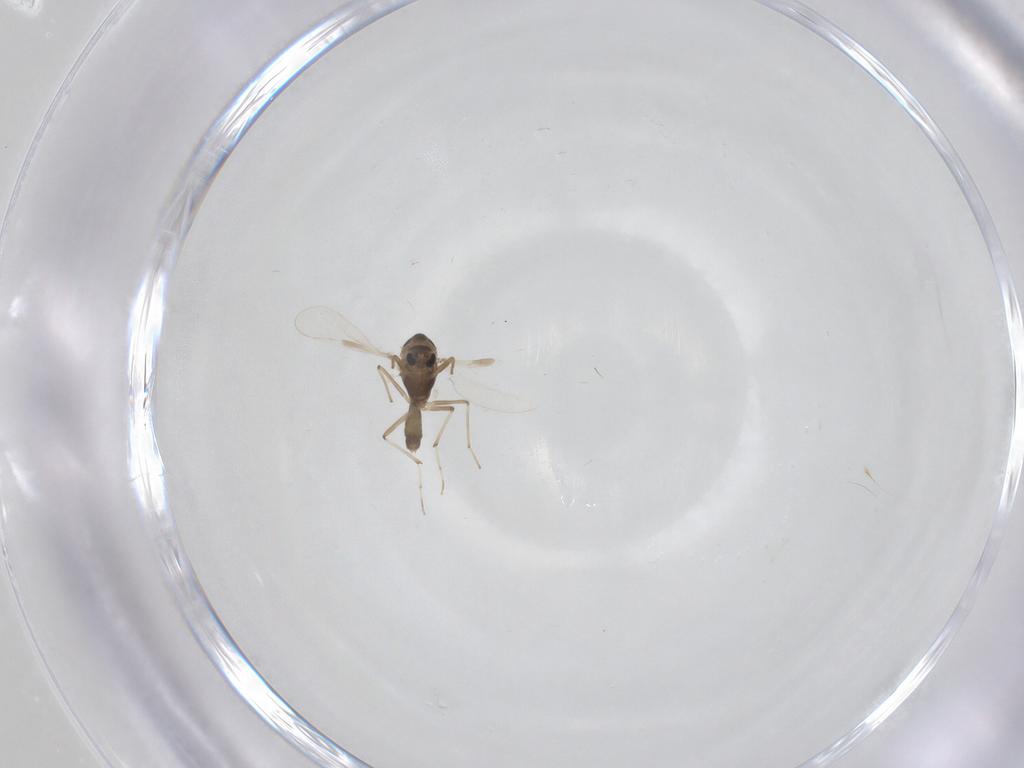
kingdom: Animalia
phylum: Arthropoda
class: Insecta
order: Diptera
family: Chironomidae
